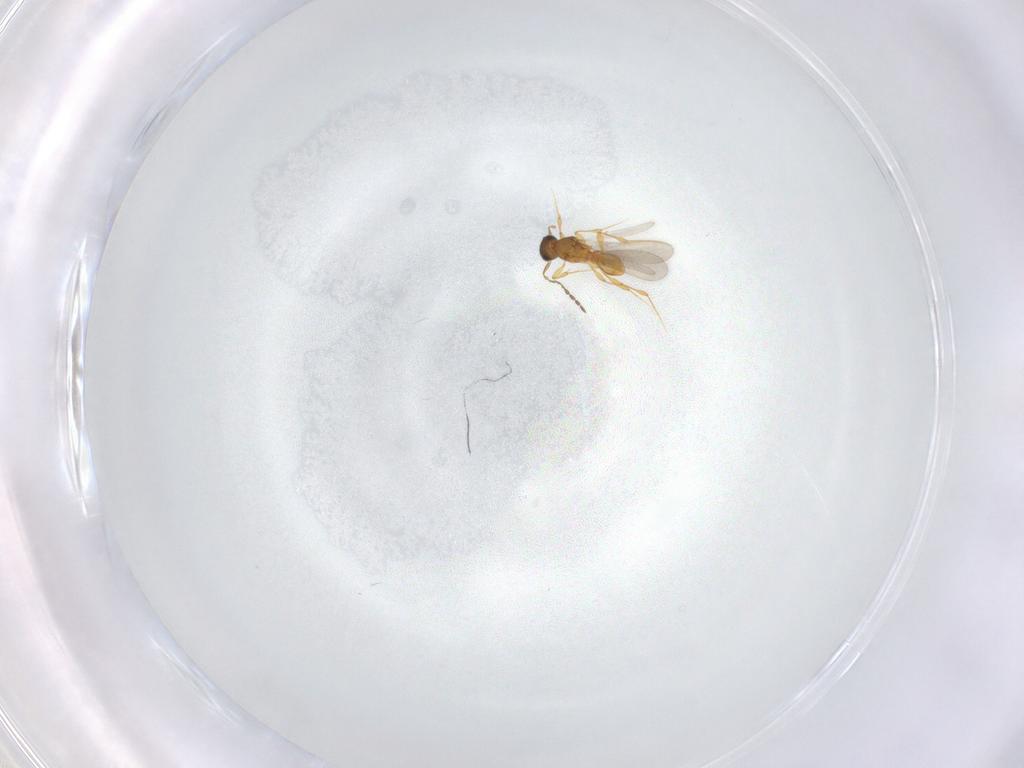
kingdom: Animalia
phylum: Arthropoda
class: Insecta
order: Hymenoptera
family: Platygastridae
